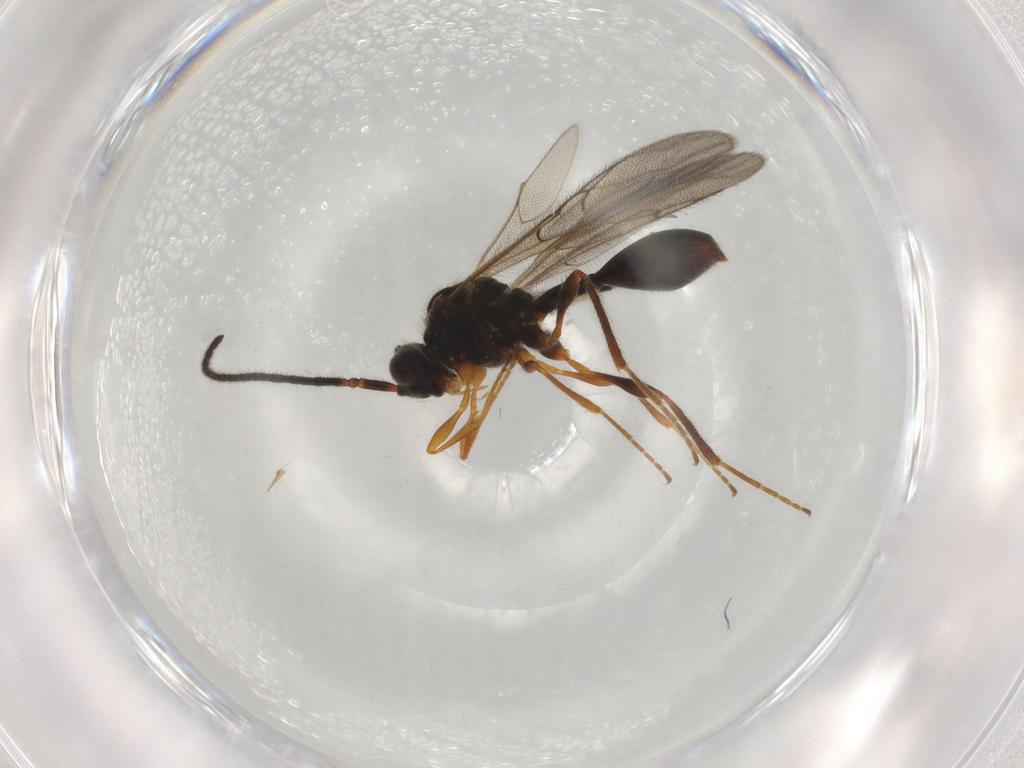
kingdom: Animalia
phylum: Arthropoda
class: Insecta
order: Hymenoptera
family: Diapriidae
